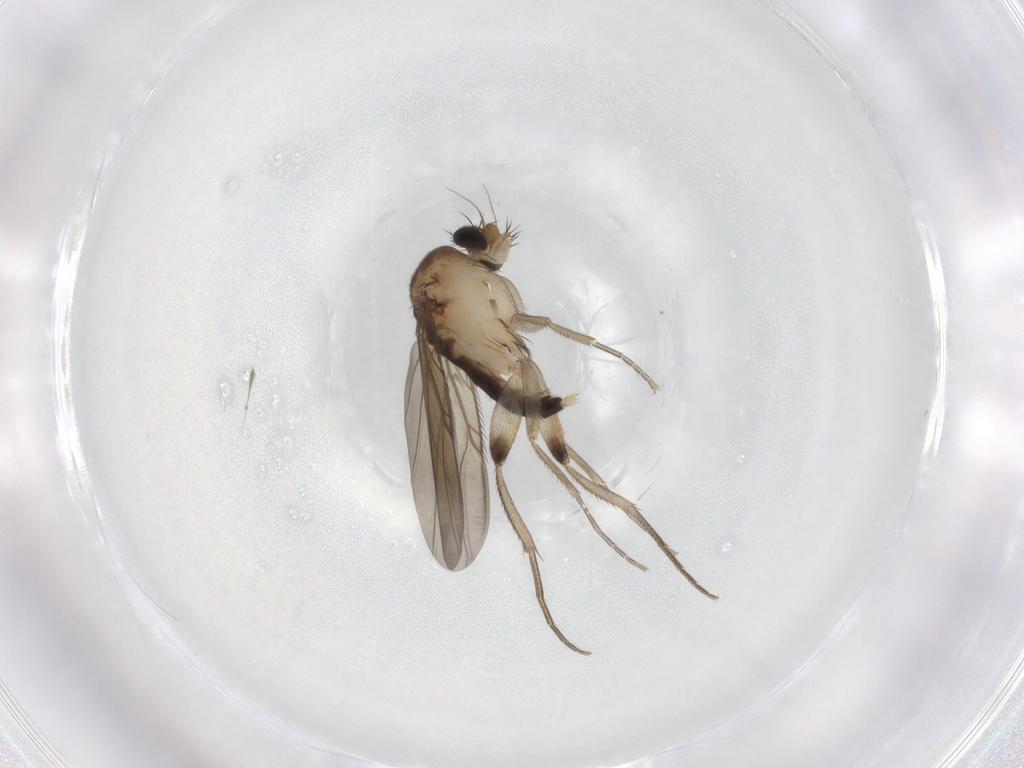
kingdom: Animalia
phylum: Arthropoda
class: Insecta
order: Diptera
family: Phoridae
